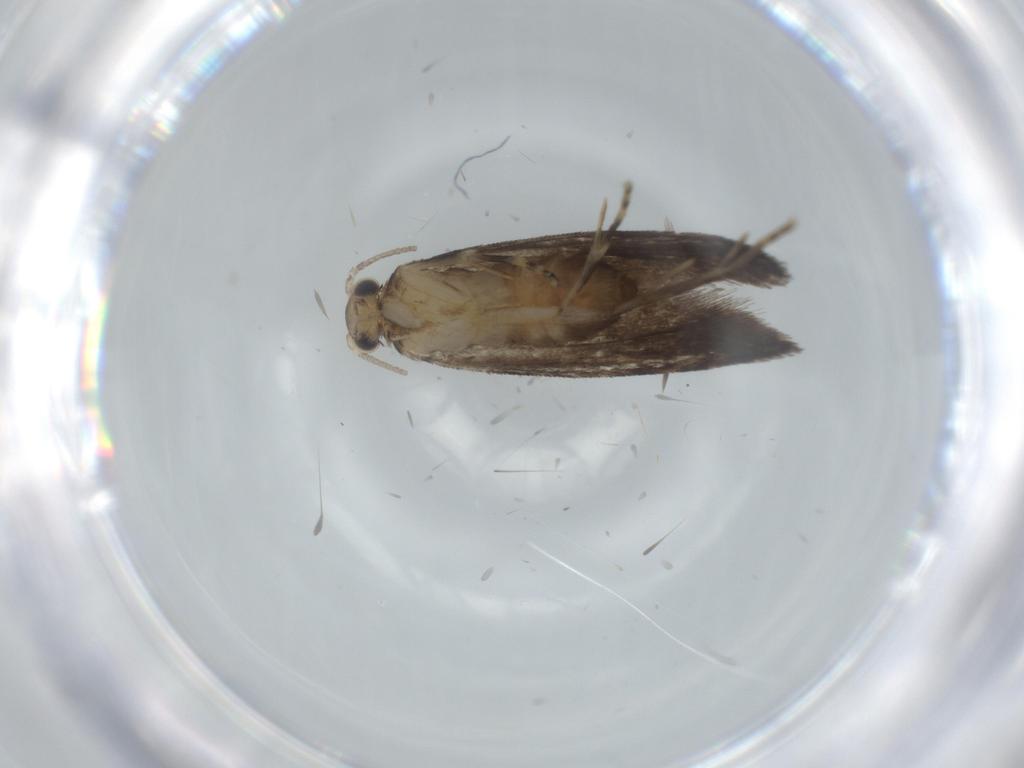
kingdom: Animalia
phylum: Arthropoda
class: Insecta
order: Lepidoptera
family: Tineidae
